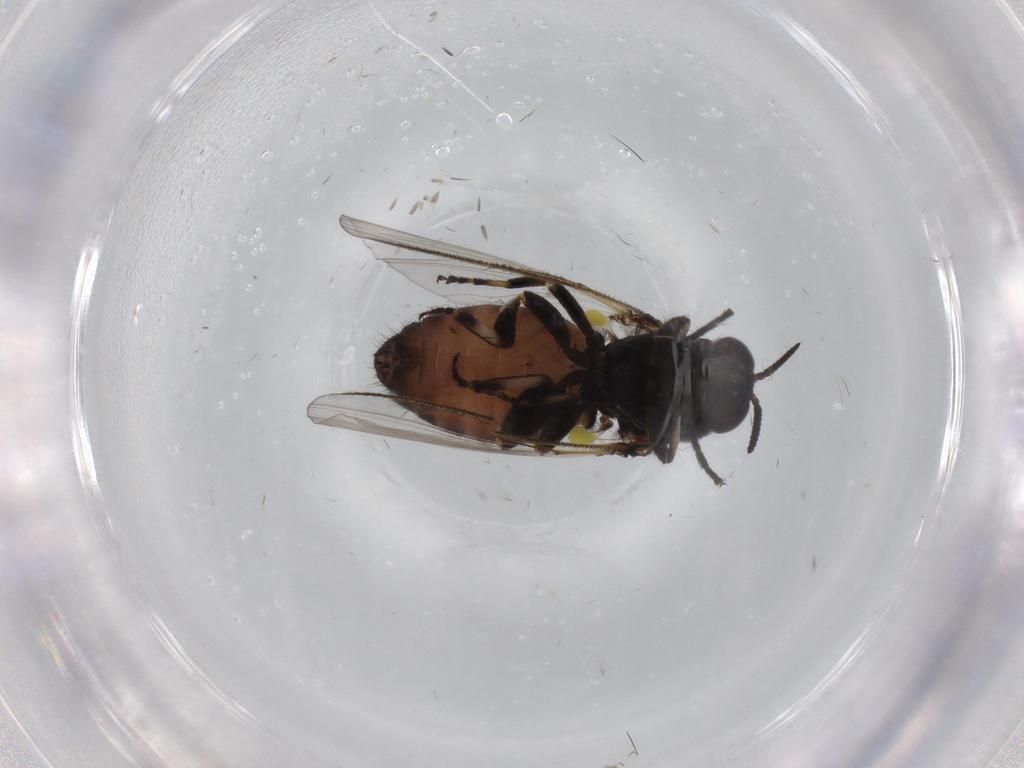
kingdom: Animalia
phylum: Arthropoda
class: Insecta
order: Diptera
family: Simuliidae
